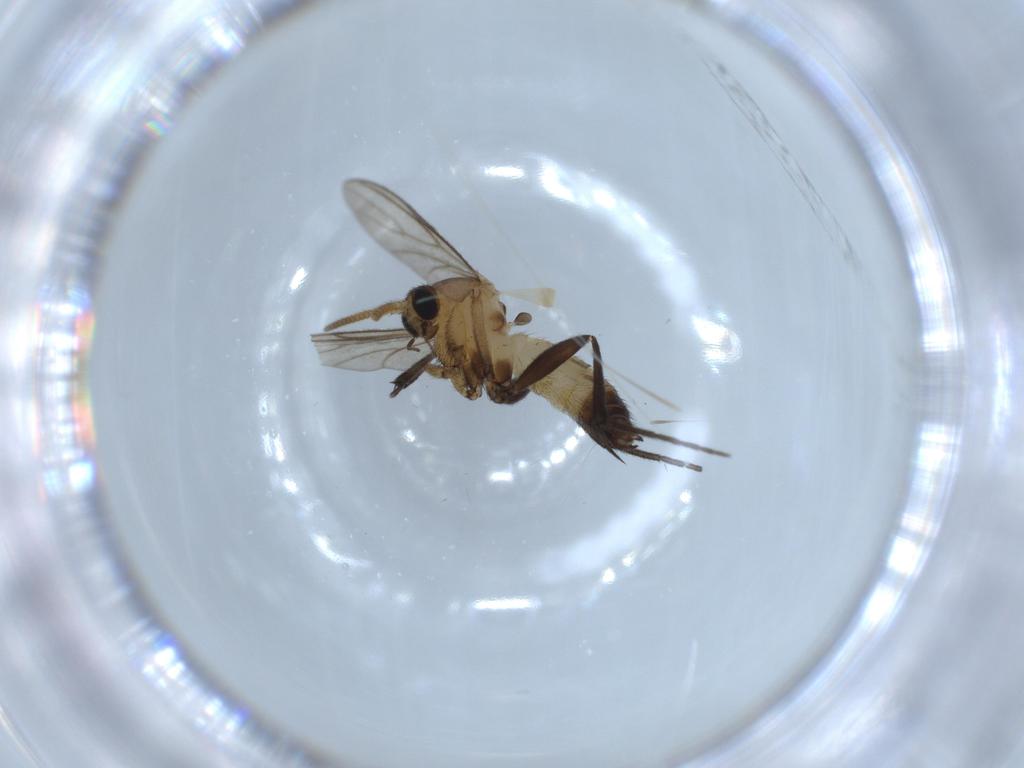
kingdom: Animalia
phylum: Arthropoda
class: Insecta
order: Diptera
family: Mycetophilidae
